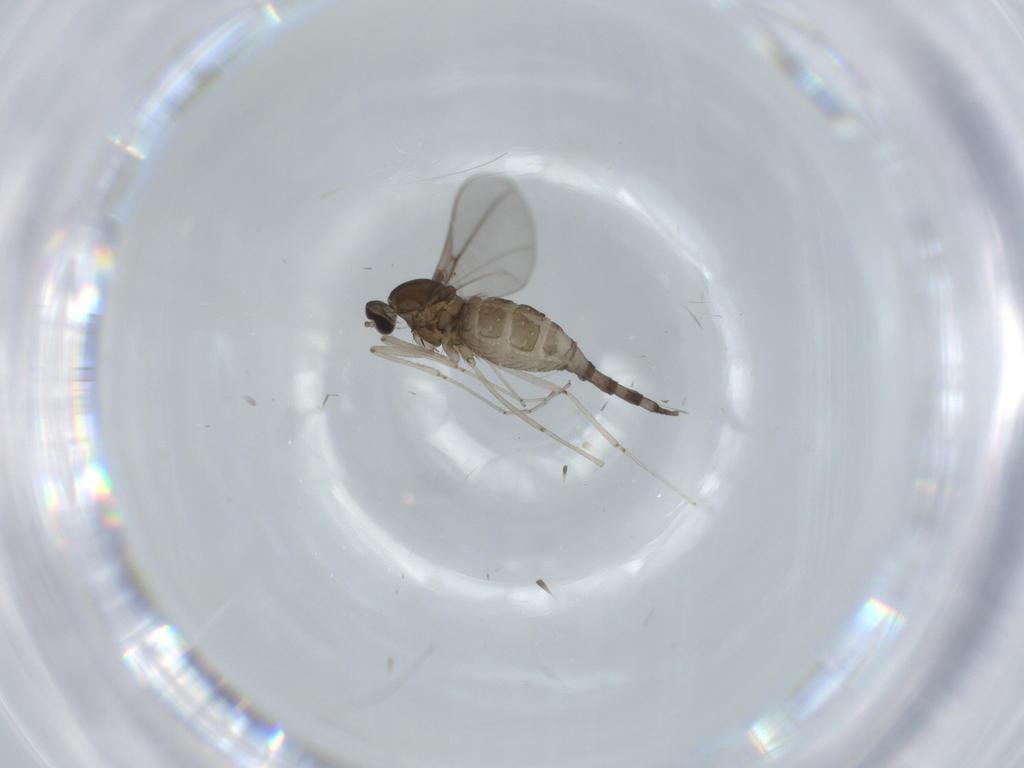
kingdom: Animalia
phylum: Arthropoda
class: Insecta
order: Diptera
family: Cecidomyiidae
